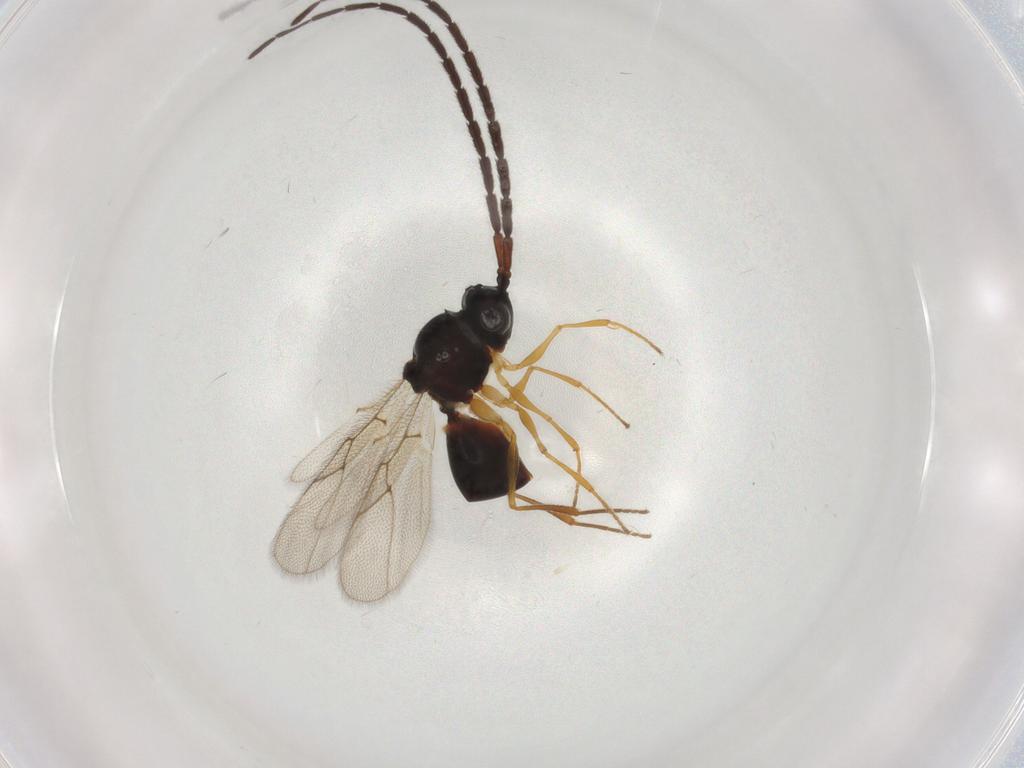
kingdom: Animalia
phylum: Arthropoda
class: Insecta
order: Hymenoptera
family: Figitidae
